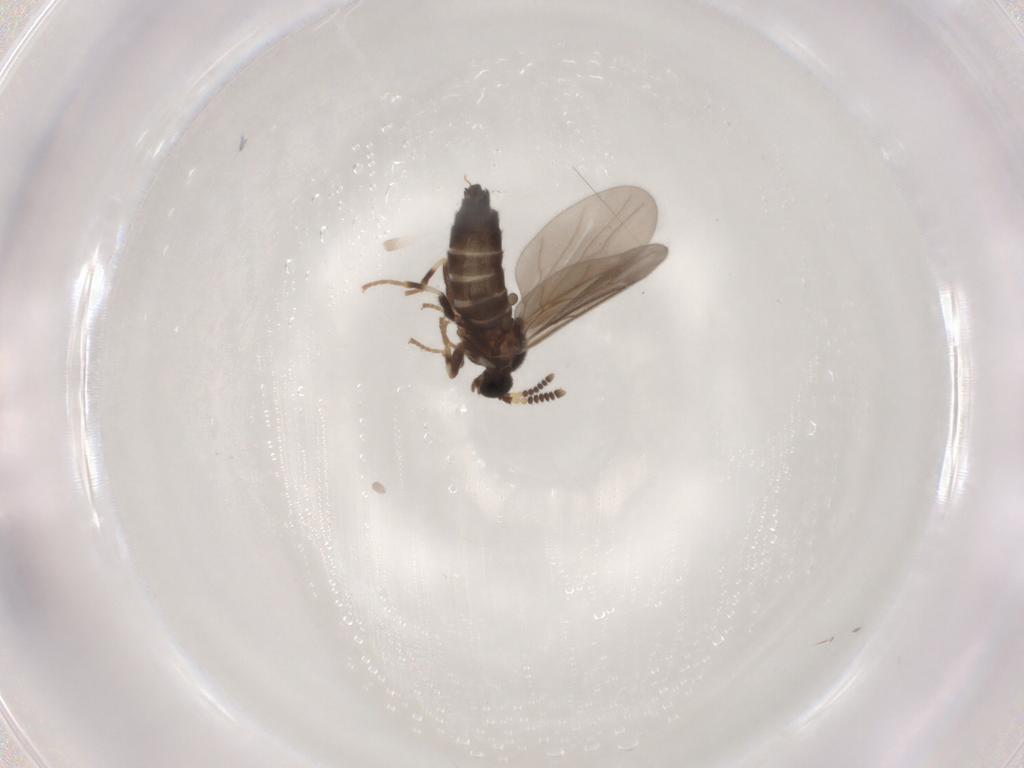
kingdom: Animalia
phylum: Arthropoda
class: Insecta
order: Diptera
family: Scatopsidae
